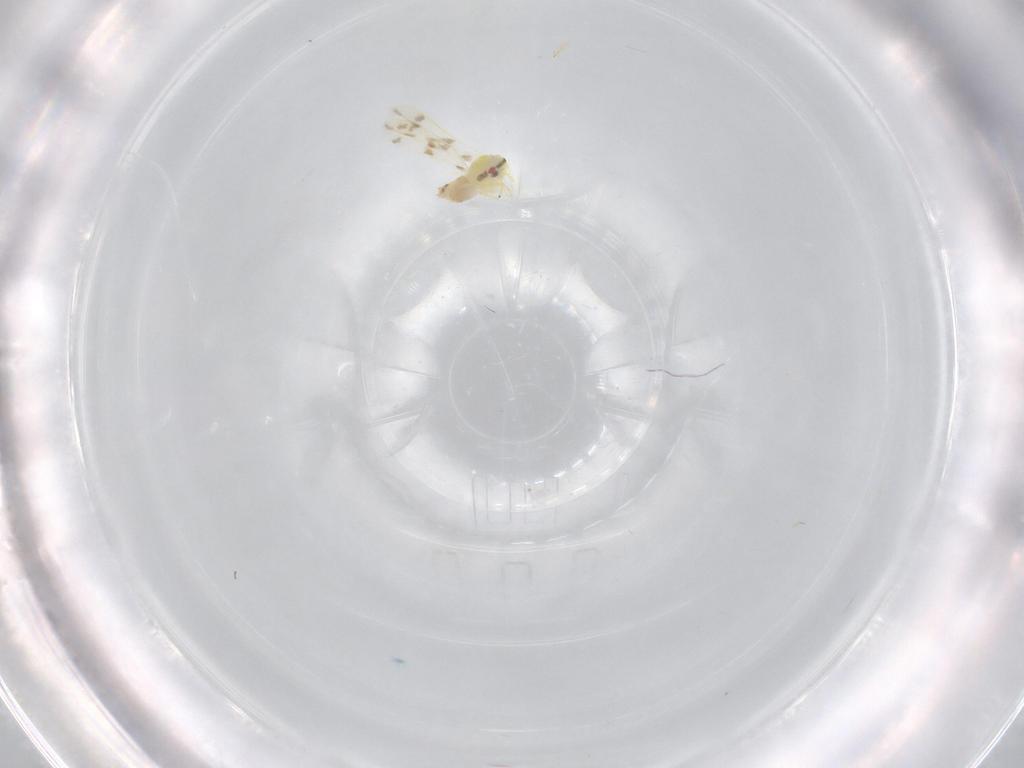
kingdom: Animalia
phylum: Arthropoda
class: Insecta
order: Hemiptera
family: Aleyrodidae
